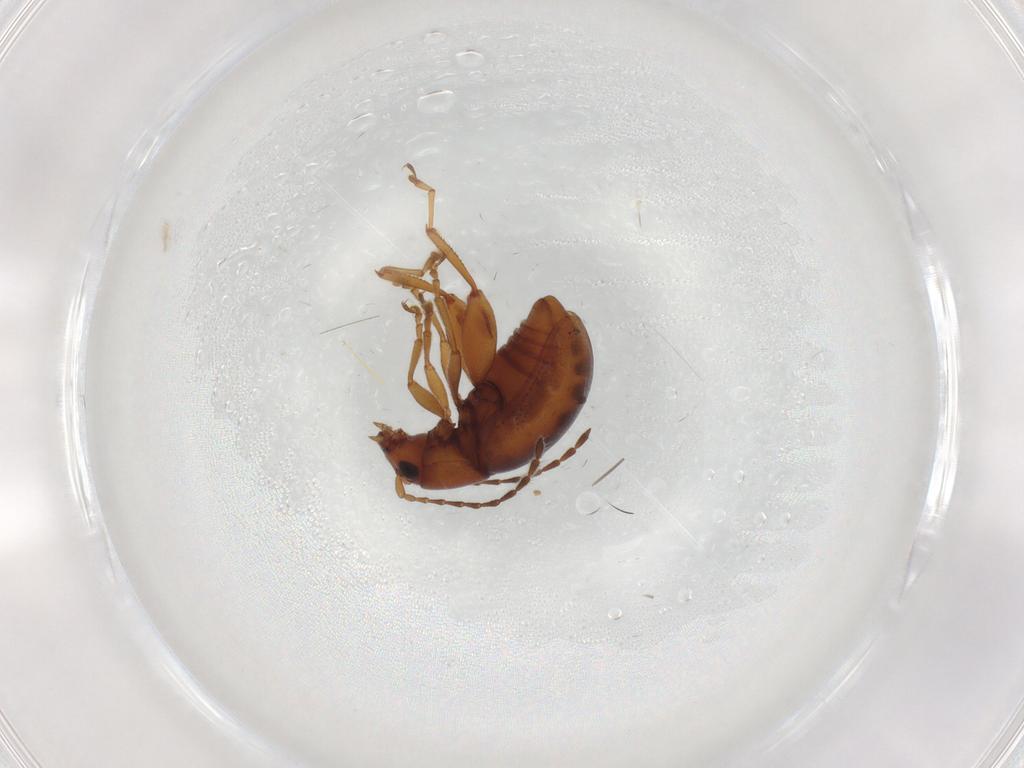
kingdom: Animalia
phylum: Arthropoda
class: Insecta
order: Coleoptera
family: Chrysomelidae
